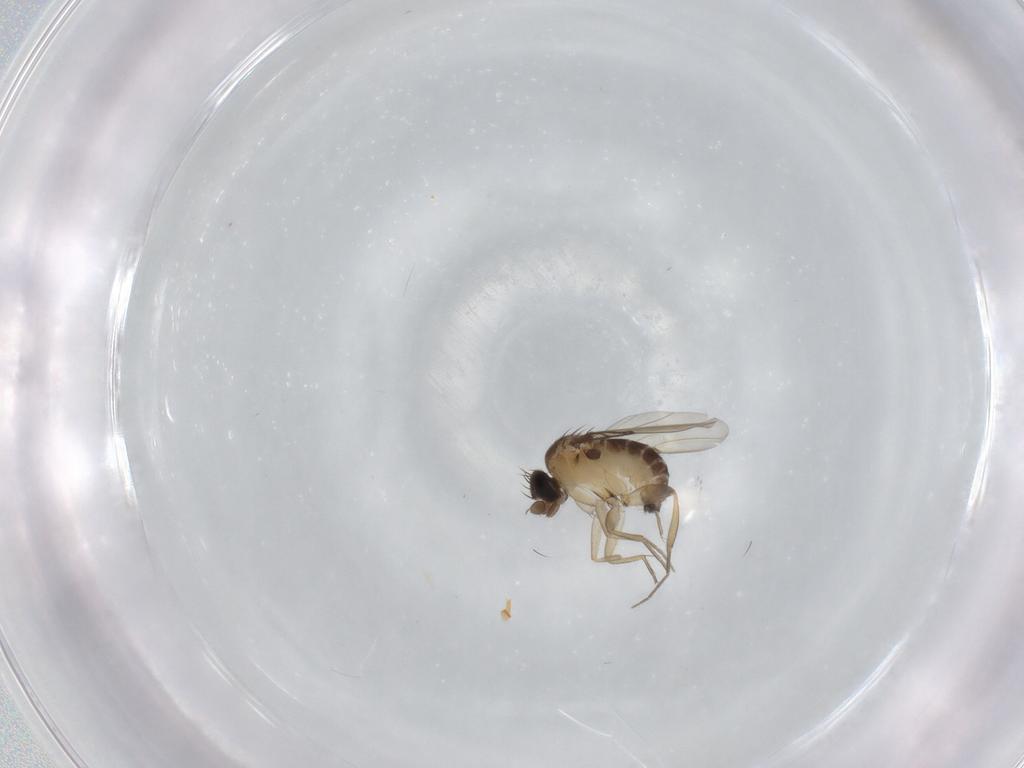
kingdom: Animalia
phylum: Arthropoda
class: Insecta
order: Diptera
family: Phoridae
